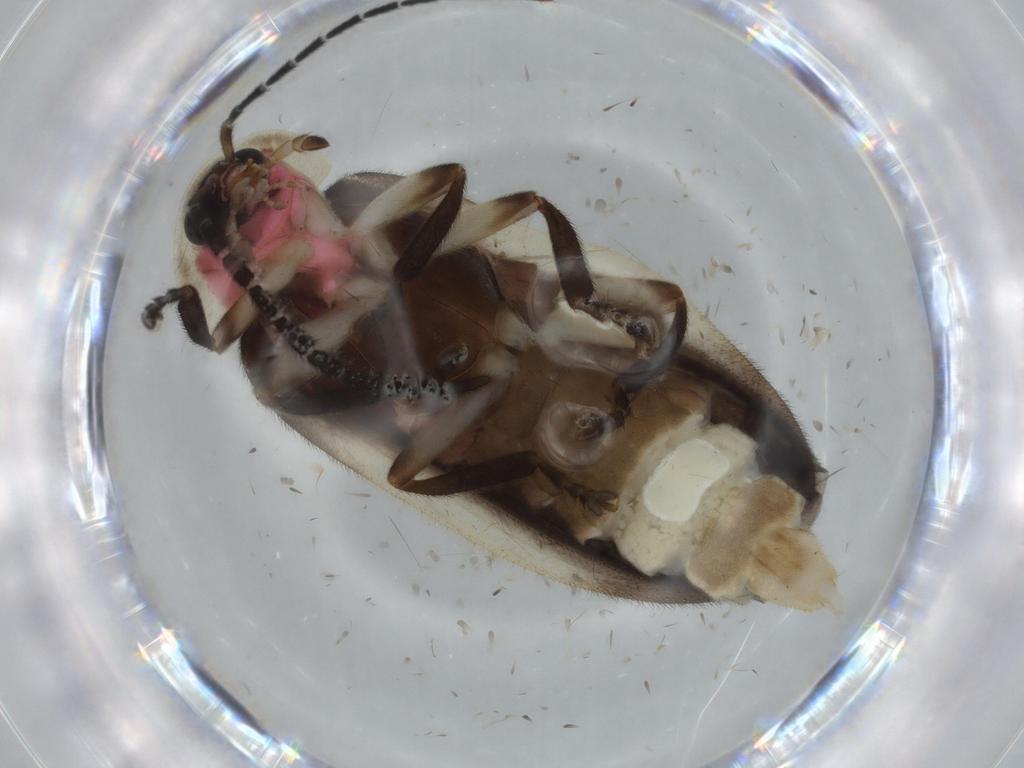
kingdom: Animalia
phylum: Arthropoda
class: Insecta
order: Coleoptera
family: Lampyridae
